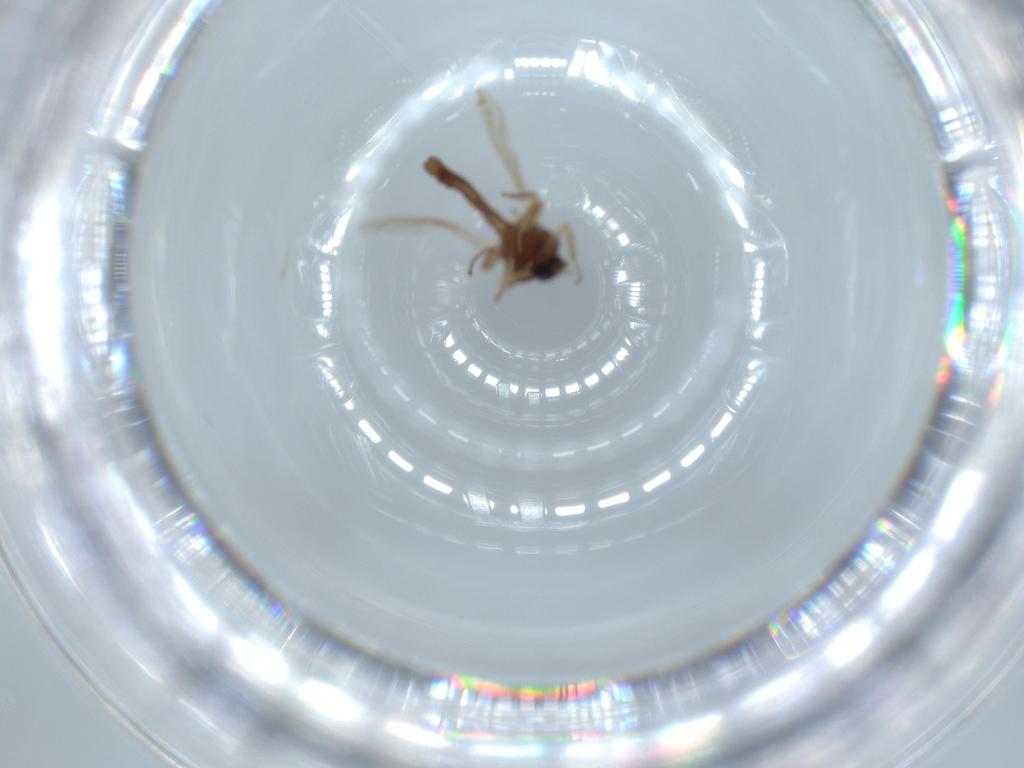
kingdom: Animalia
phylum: Arthropoda
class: Insecta
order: Diptera
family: Ceratopogonidae
